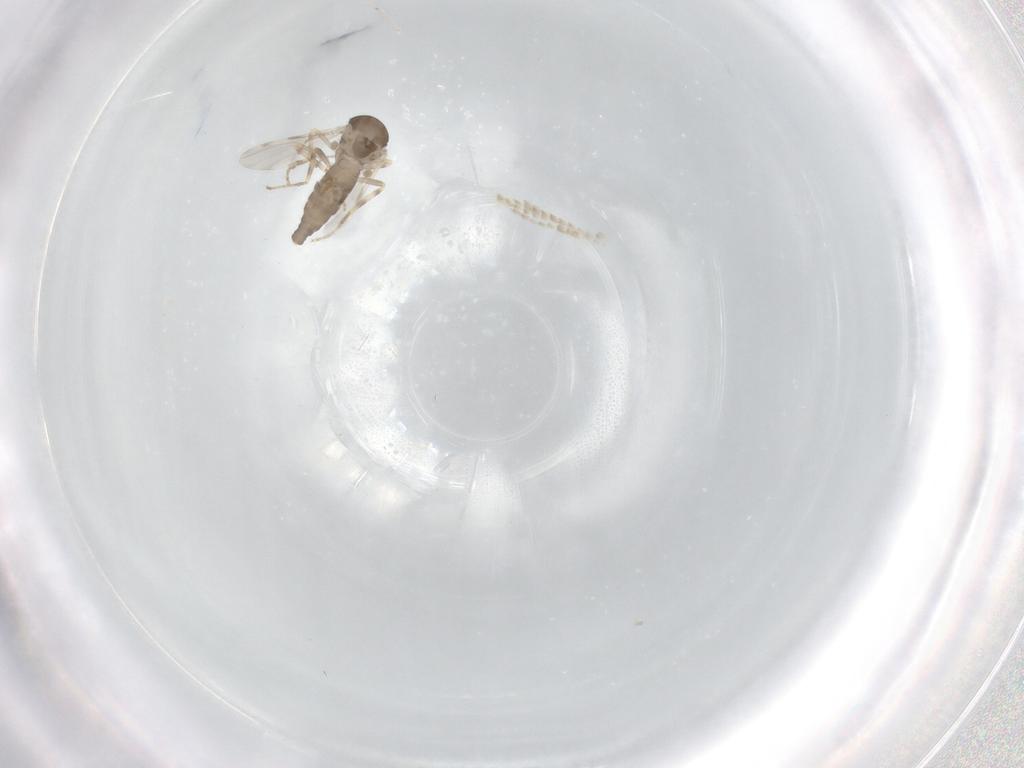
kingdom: Animalia
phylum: Arthropoda
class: Insecta
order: Diptera
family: Ceratopogonidae
